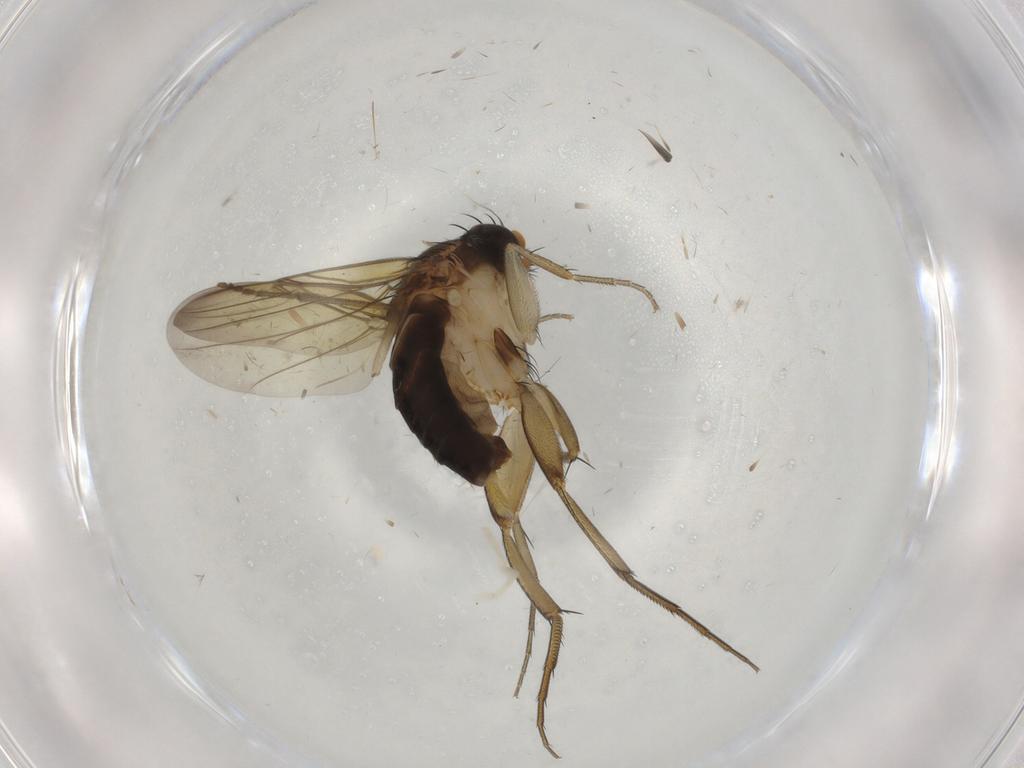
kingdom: Animalia
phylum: Arthropoda
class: Insecta
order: Diptera
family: Psychodidae
